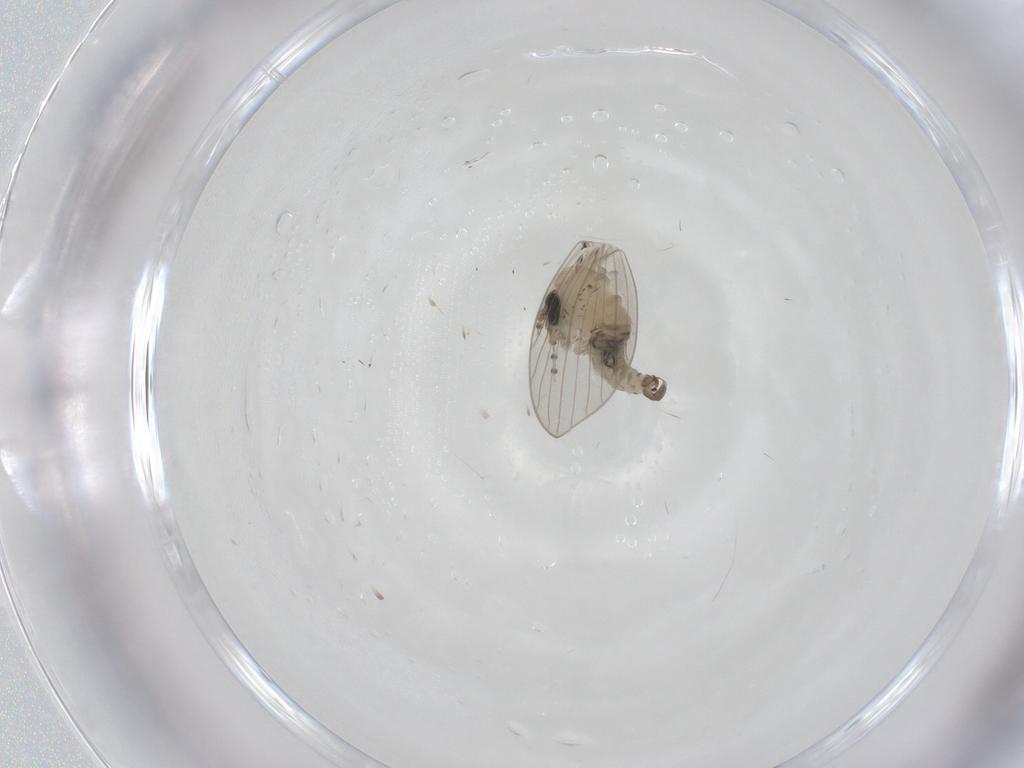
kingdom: Animalia
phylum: Arthropoda
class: Insecta
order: Diptera
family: Psychodidae
